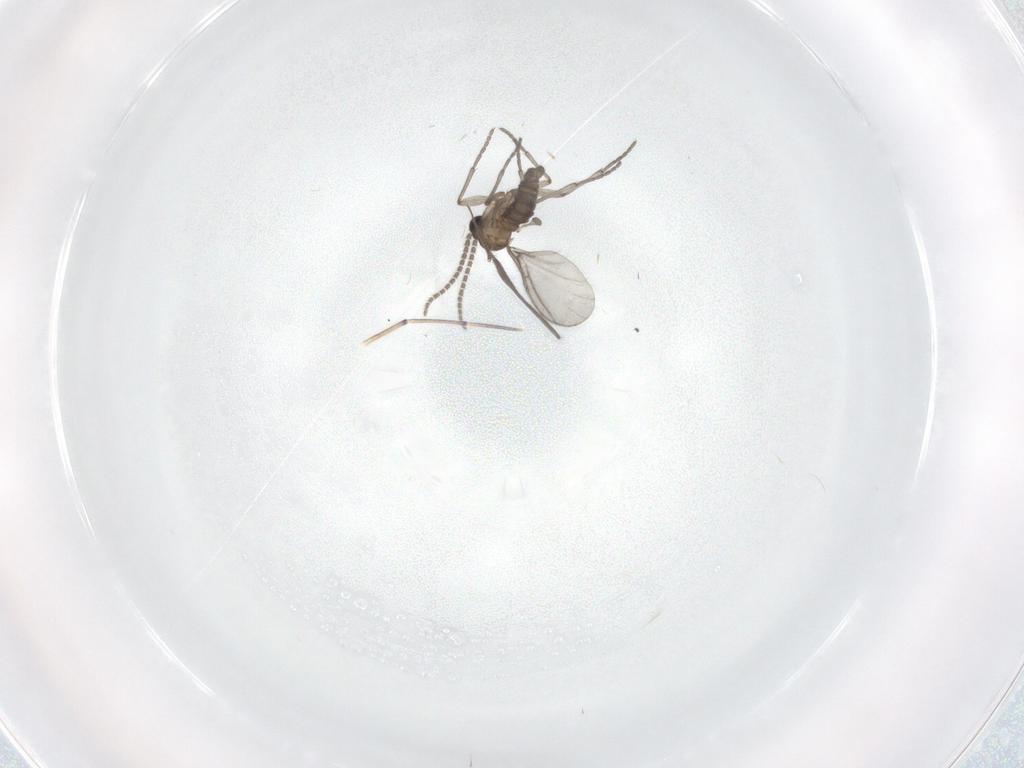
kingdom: Animalia
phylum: Arthropoda
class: Insecta
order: Diptera
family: Sciaridae
